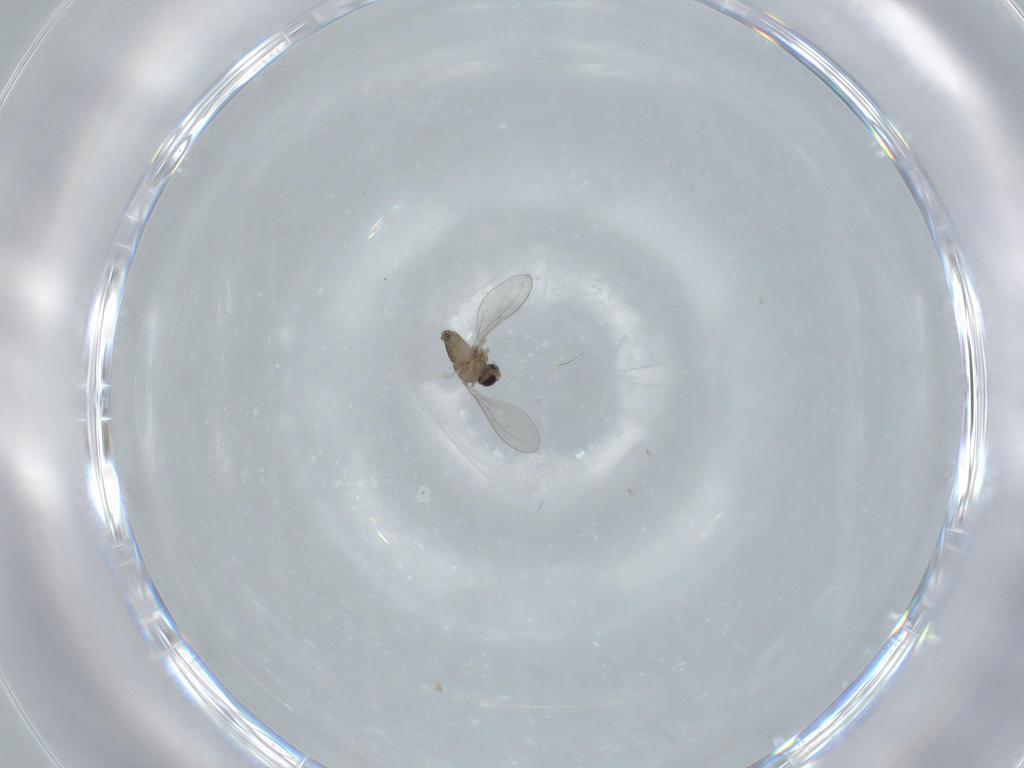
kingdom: Animalia
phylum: Arthropoda
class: Insecta
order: Diptera
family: Cecidomyiidae
